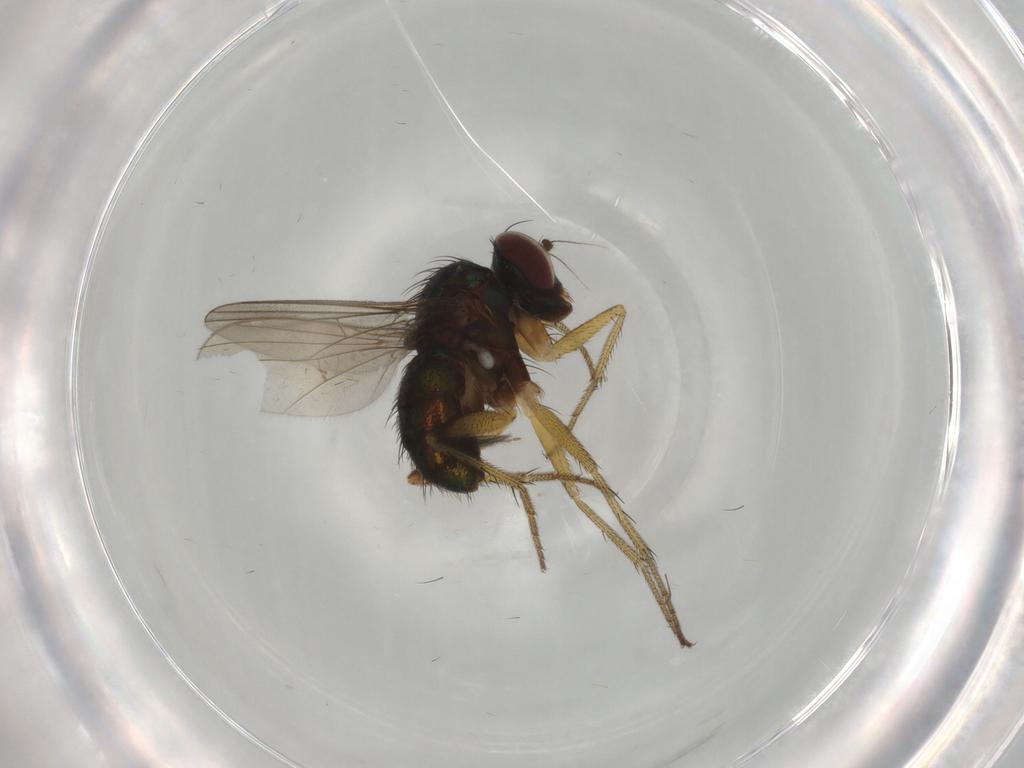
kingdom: Animalia
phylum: Arthropoda
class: Insecta
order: Diptera
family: Dolichopodidae
